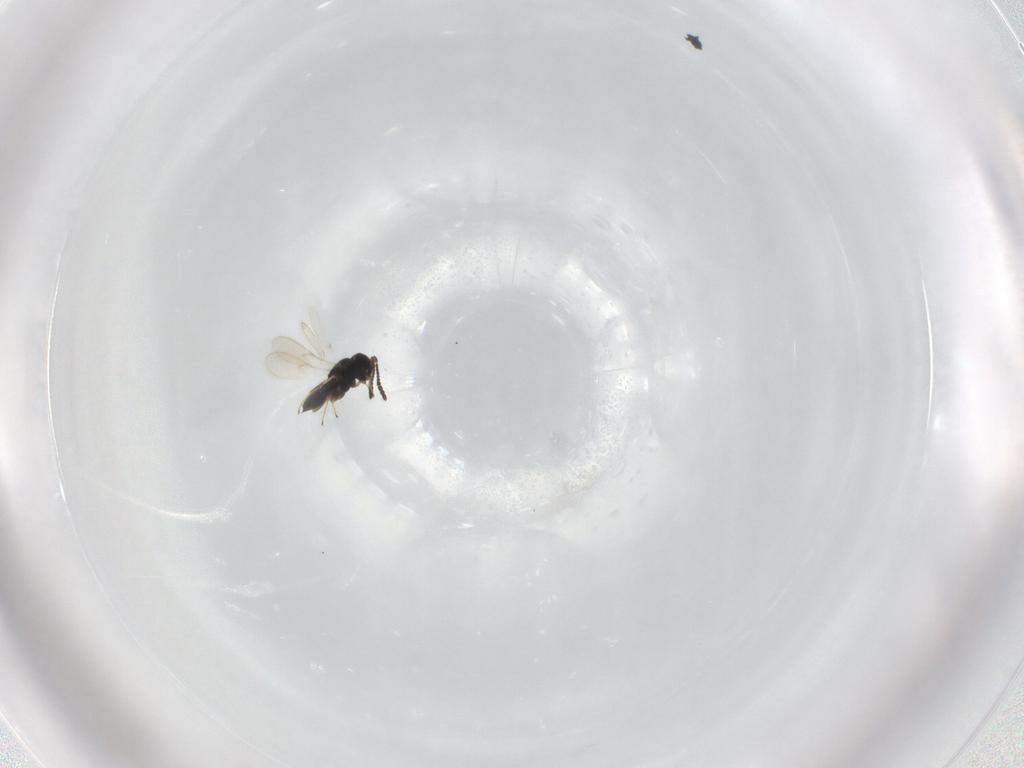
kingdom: Animalia
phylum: Arthropoda
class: Insecta
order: Hymenoptera
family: Scelionidae
